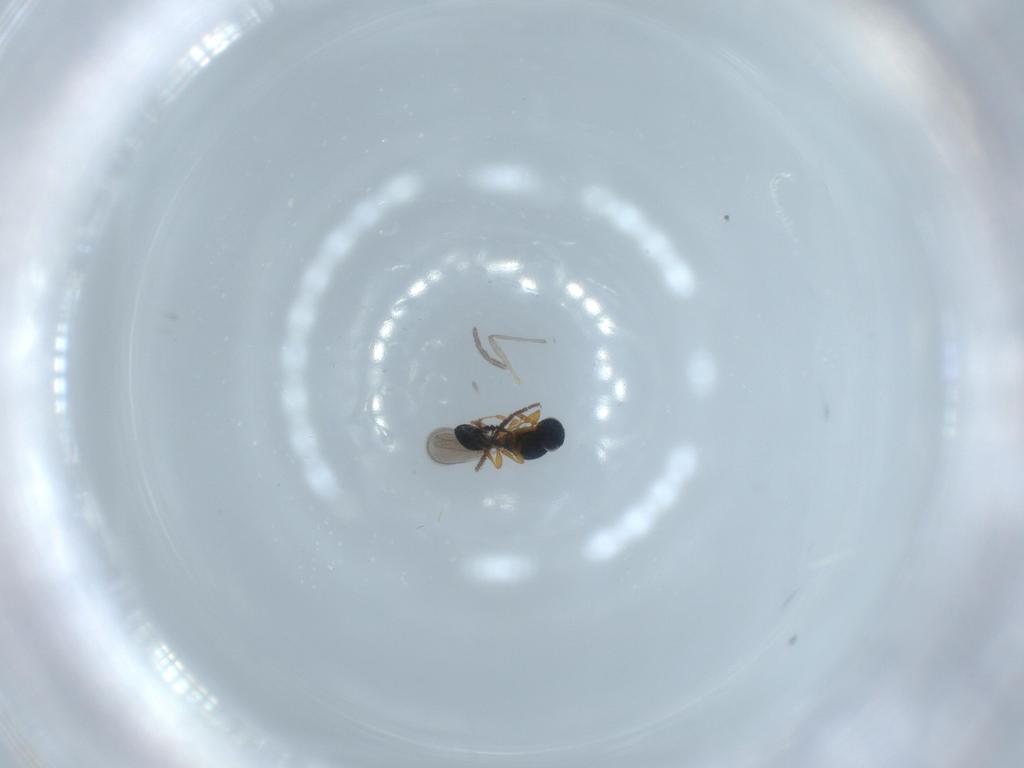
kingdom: Animalia
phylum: Arthropoda
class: Insecta
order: Hymenoptera
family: Platygastridae
